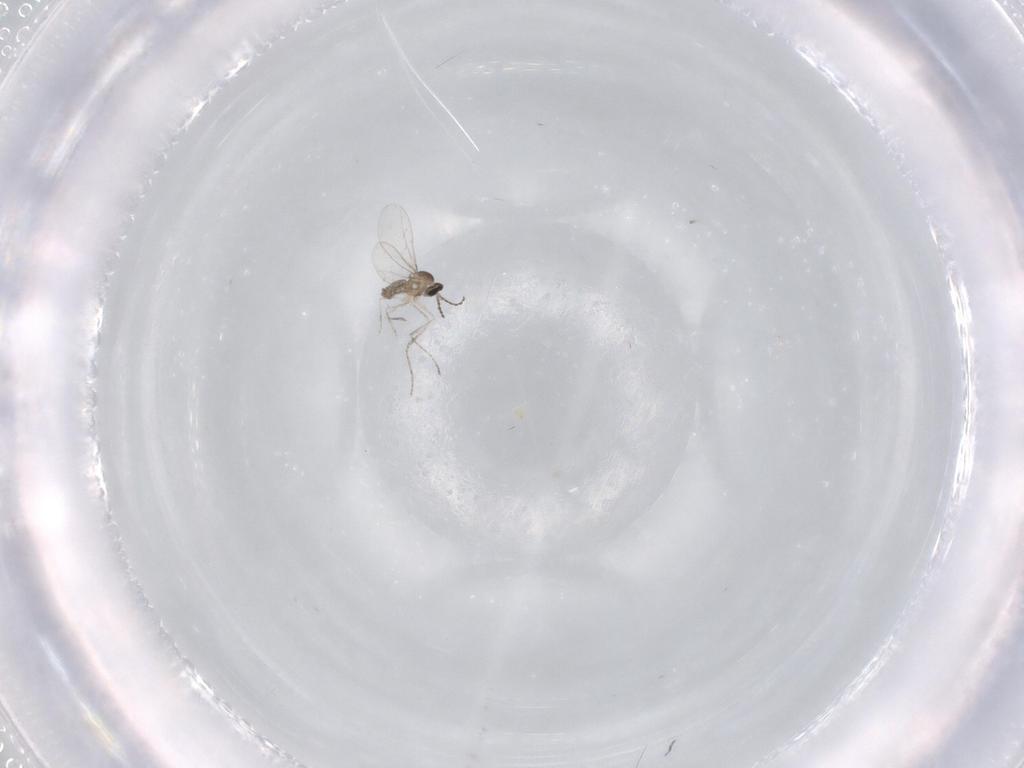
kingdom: Animalia
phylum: Arthropoda
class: Insecta
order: Diptera
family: Cecidomyiidae
